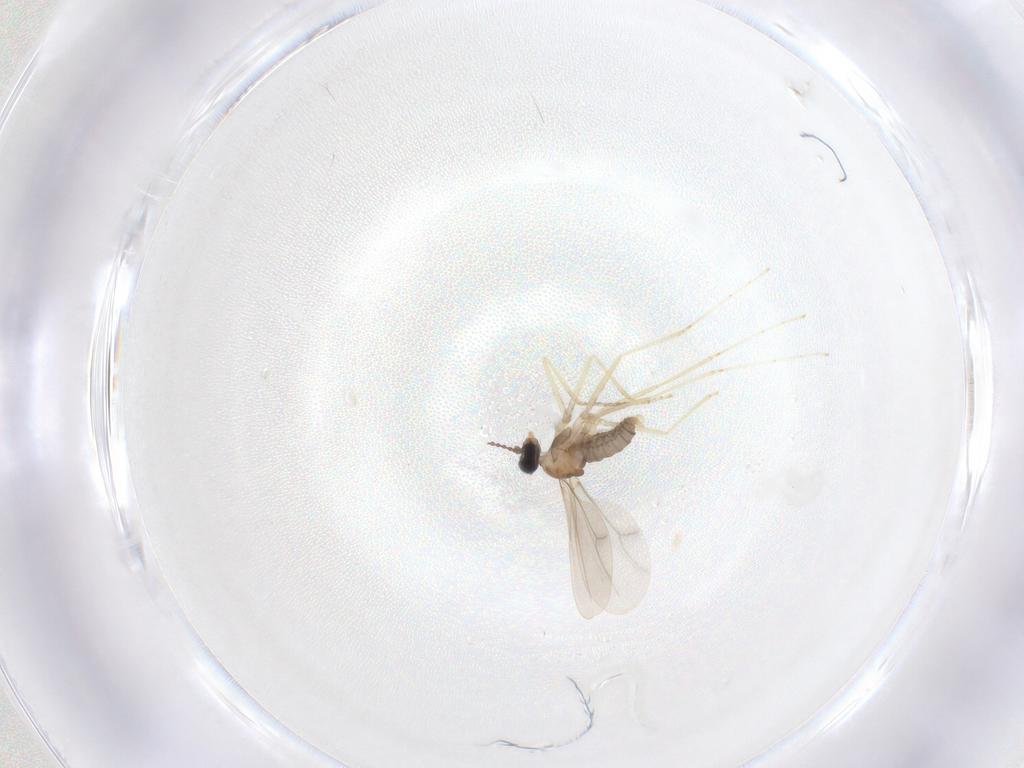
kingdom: Animalia
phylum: Arthropoda
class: Insecta
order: Diptera
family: Cecidomyiidae
